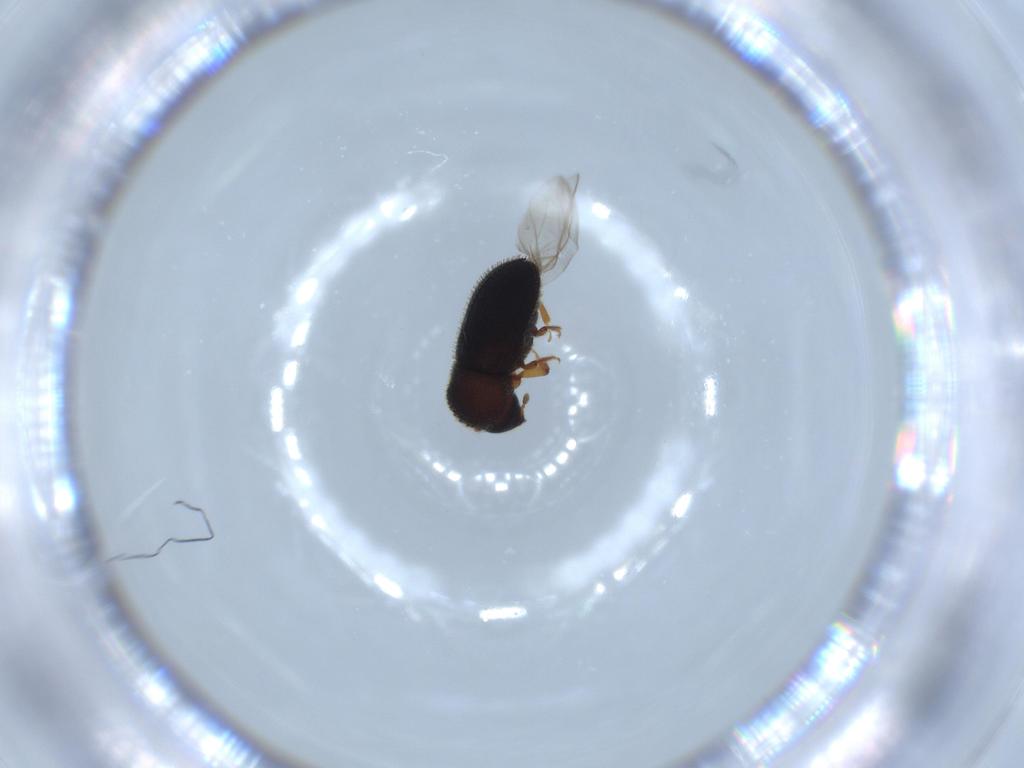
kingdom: Animalia
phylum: Arthropoda
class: Insecta
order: Coleoptera
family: Curculionidae
